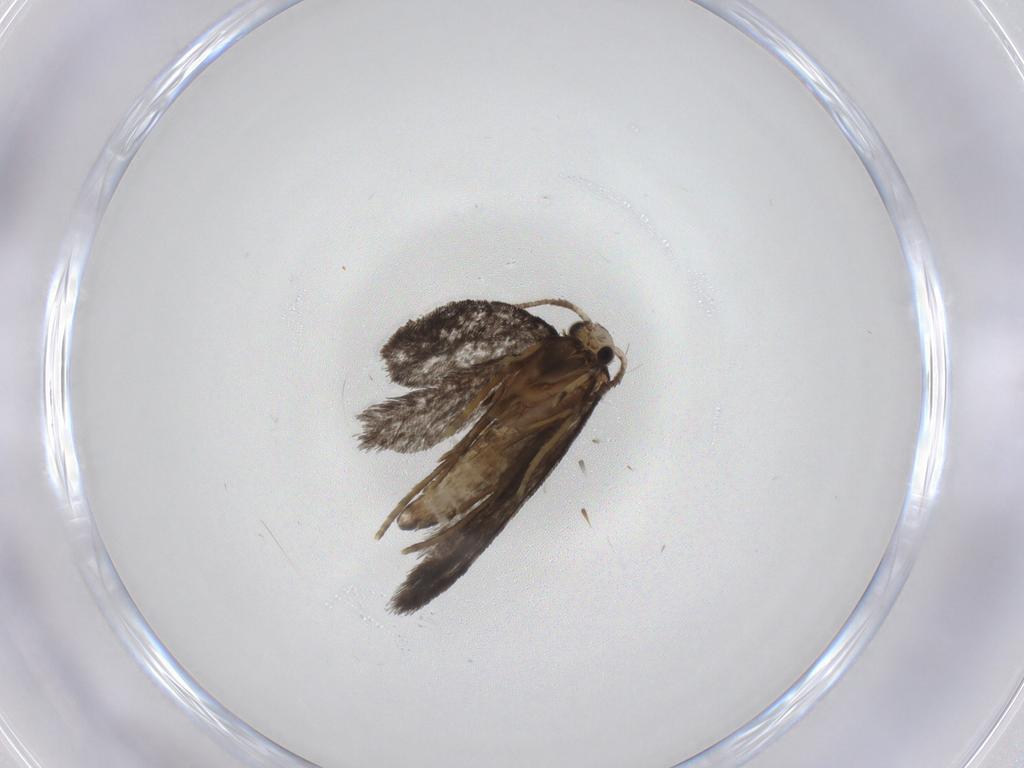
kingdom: Animalia
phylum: Arthropoda
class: Insecta
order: Lepidoptera
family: Psychidae
